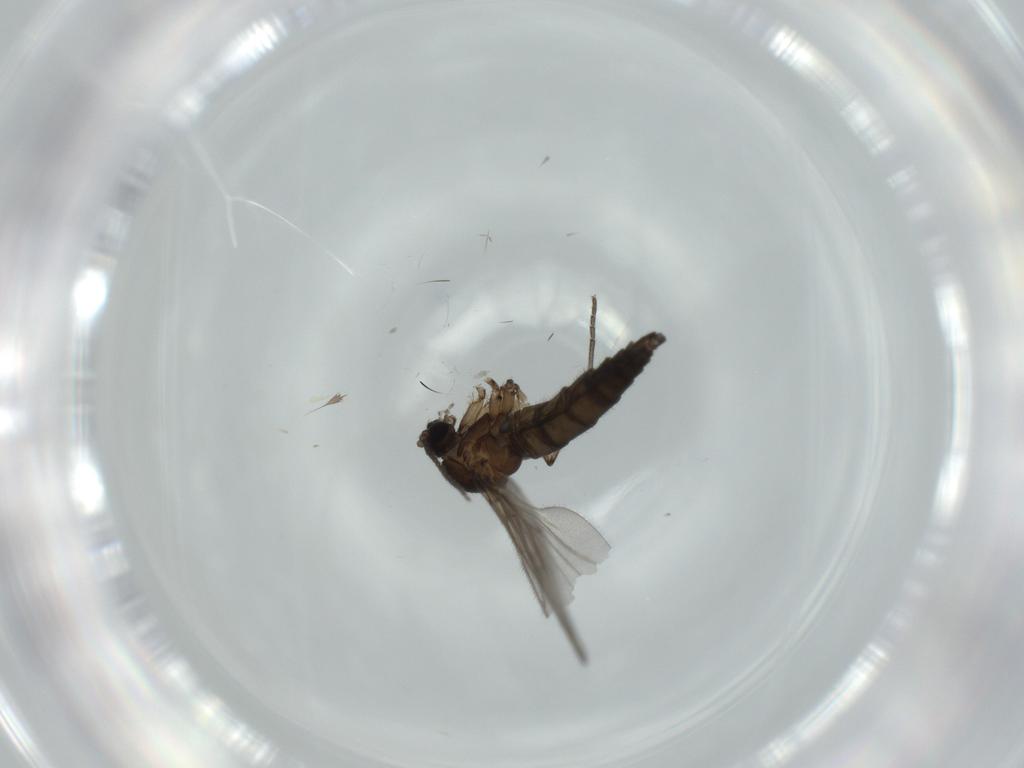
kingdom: Animalia
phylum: Arthropoda
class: Insecta
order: Diptera
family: Sciaridae
